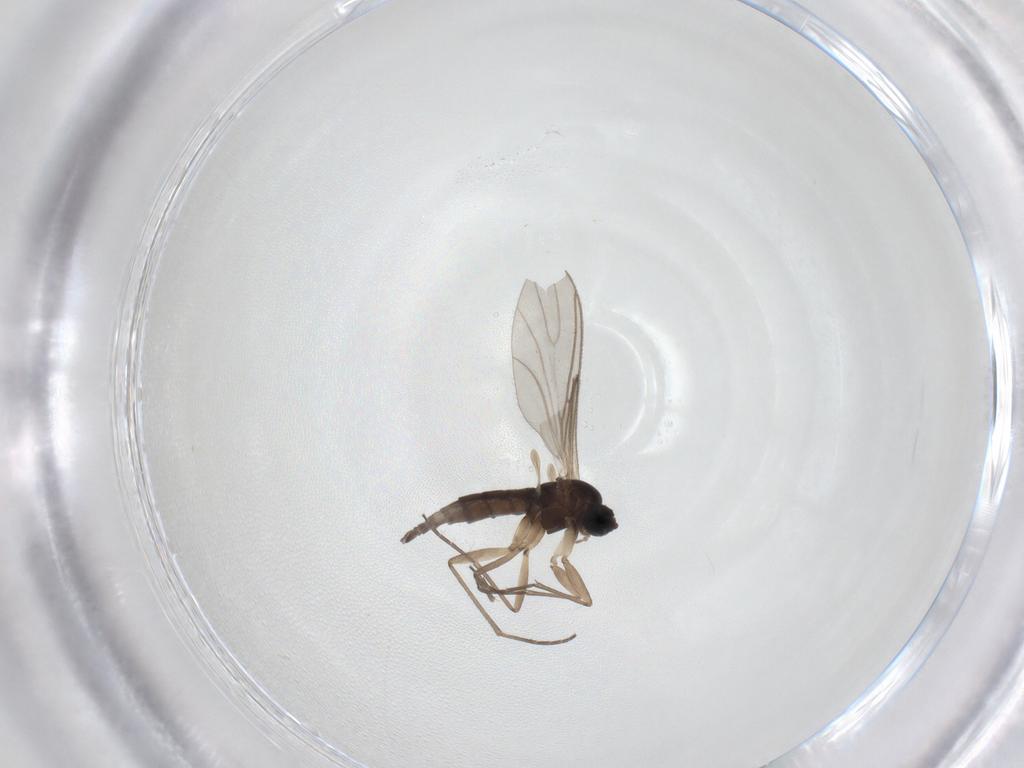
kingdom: Animalia
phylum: Arthropoda
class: Insecta
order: Diptera
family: Sciaridae
